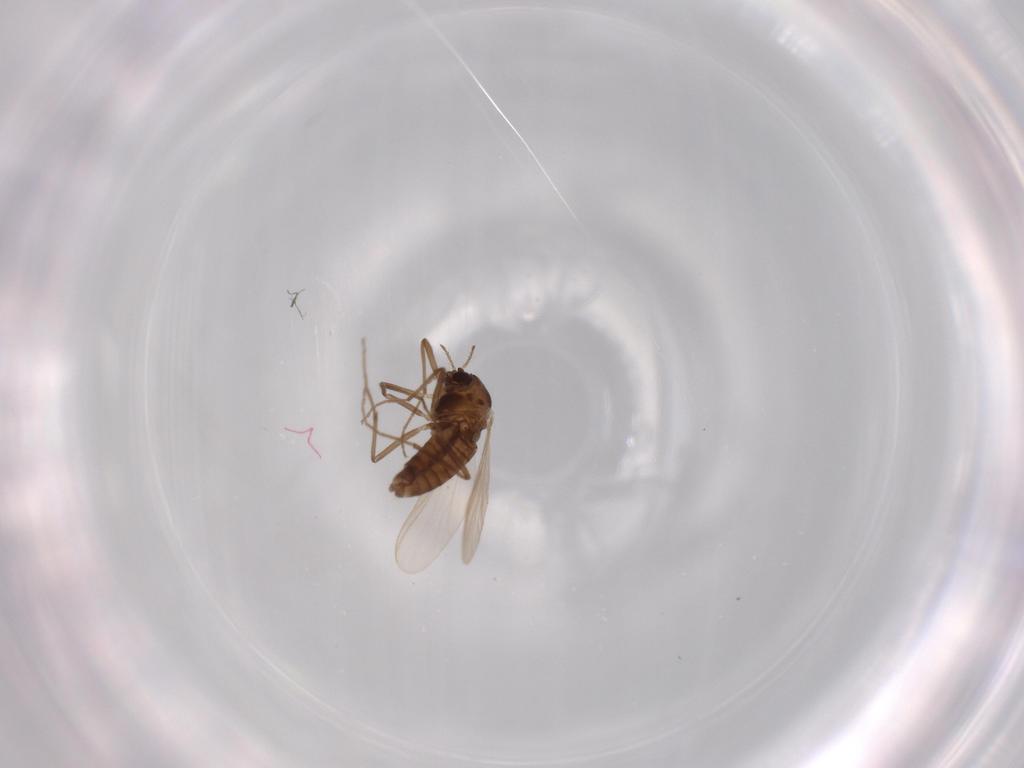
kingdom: Animalia
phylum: Arthropoda
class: Insecta
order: Diptera
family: Chironomidae
